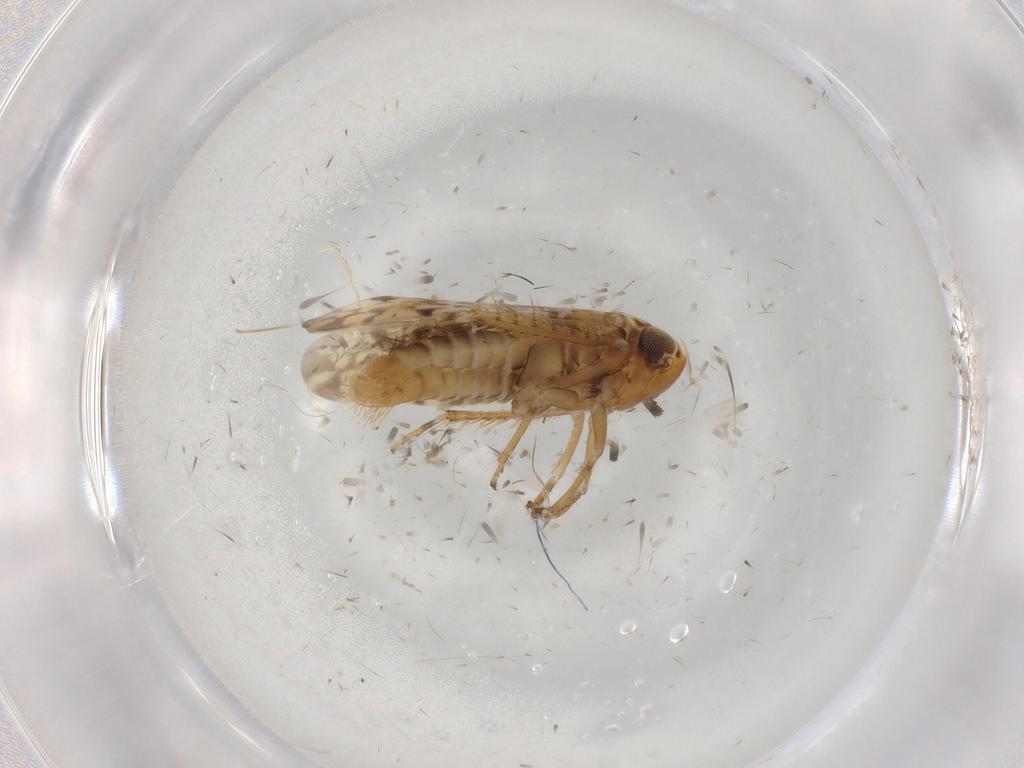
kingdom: Animalia
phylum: Arthropoda
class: Insecta
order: Hemiptera
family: Cicadellidae
